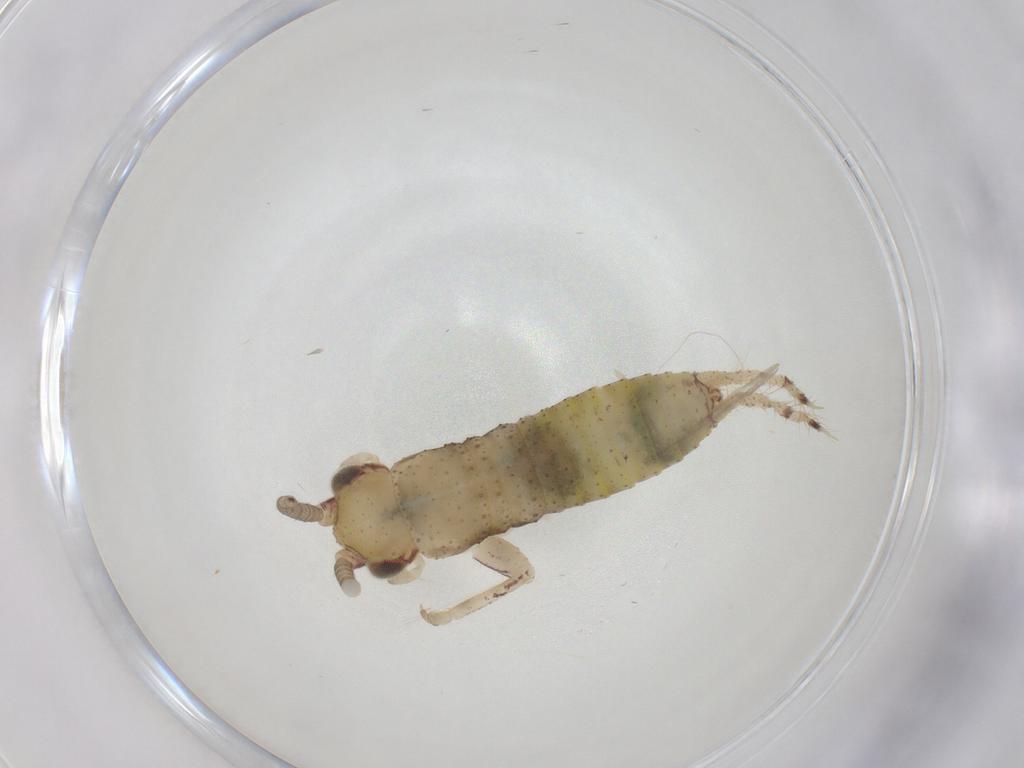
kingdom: Animalia
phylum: Arthropoda
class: Insecta
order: Orthoptera
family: Gryllidae
